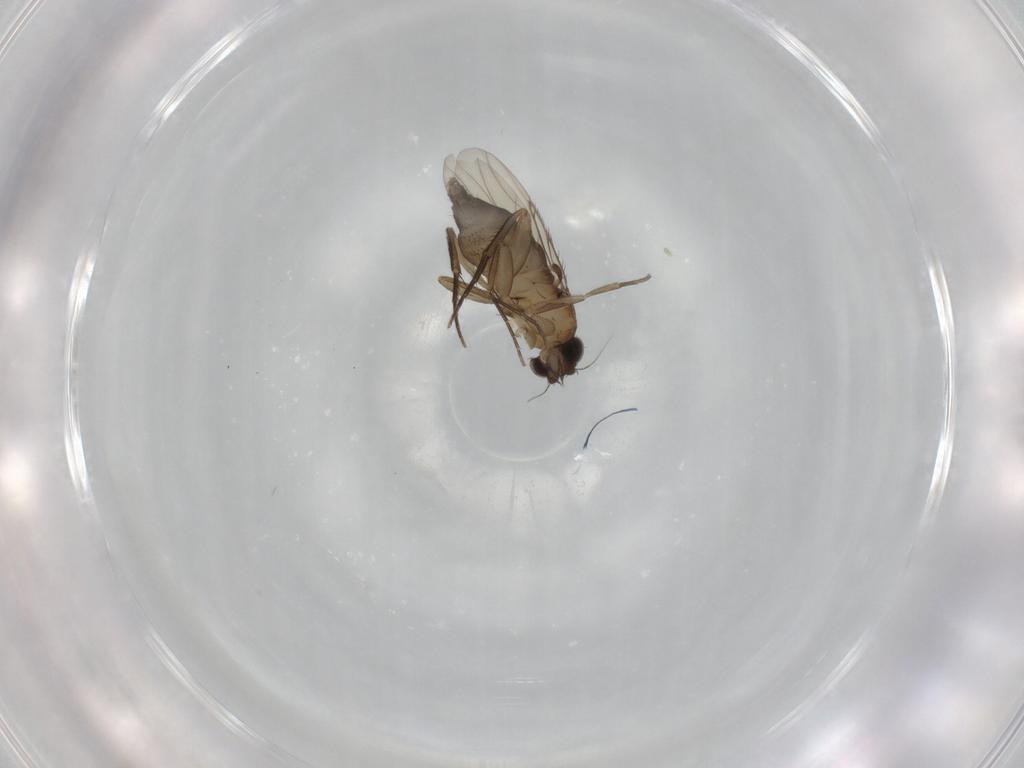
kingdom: Animalia
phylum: Arthropoda
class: Insecta
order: Diptera
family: Phoridae
